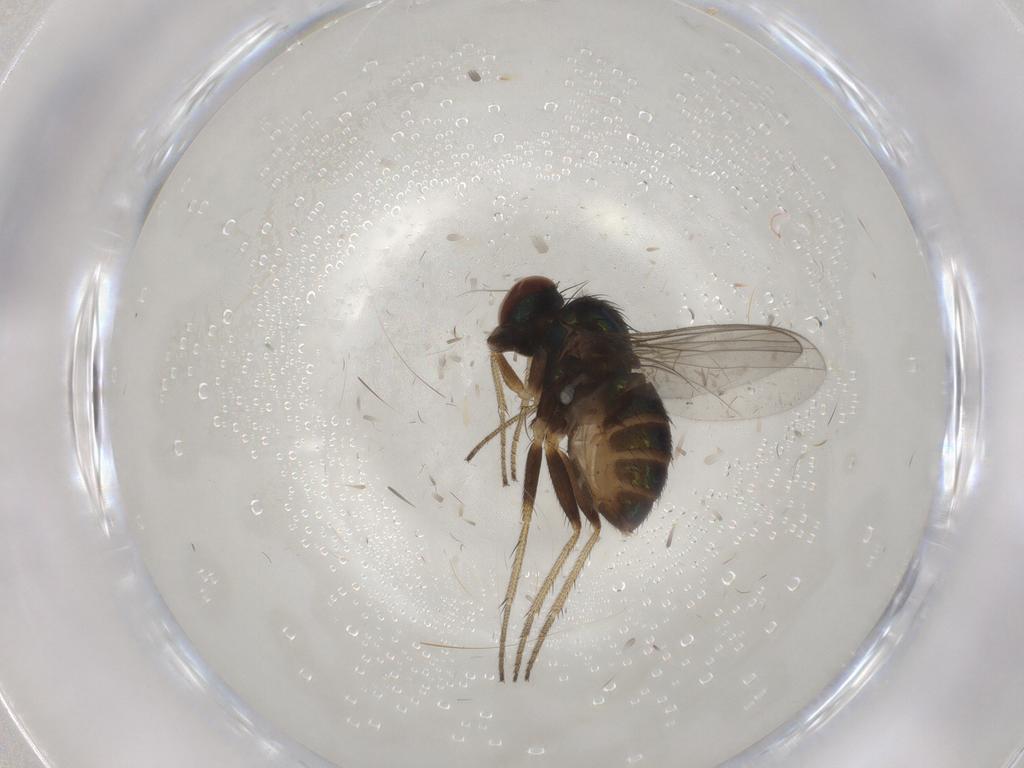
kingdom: Animalia
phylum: Arthropoda
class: Insecta
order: Diptera
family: Dolichopodidae
